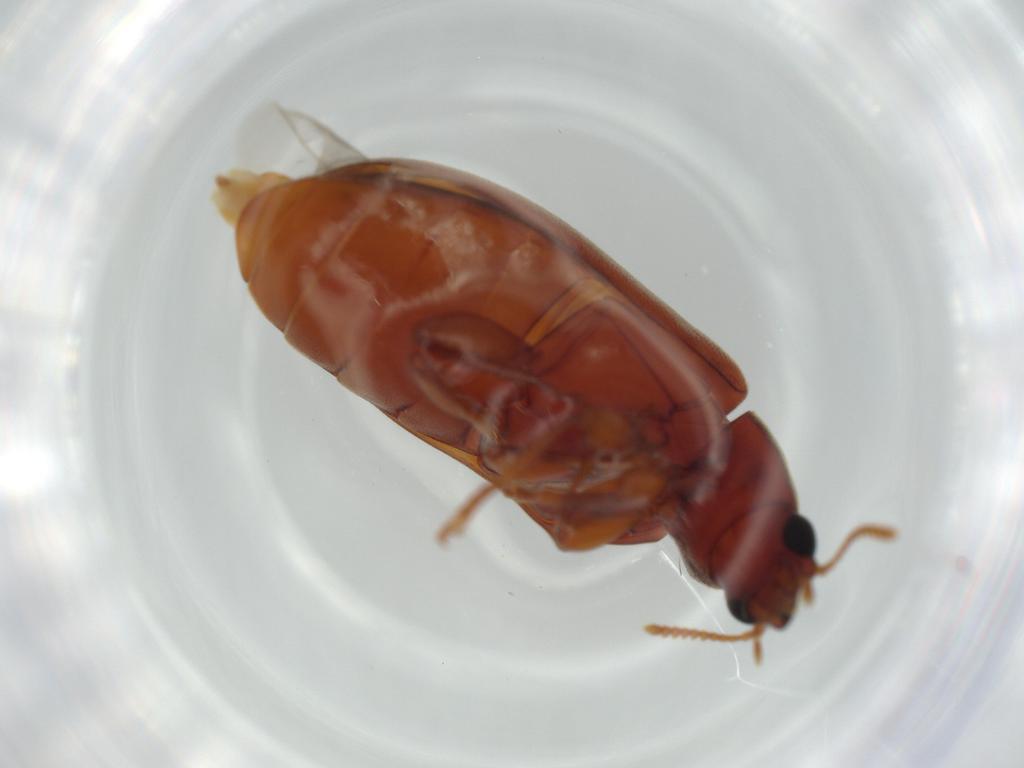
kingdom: Animalia
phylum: Arthropoda
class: Insecta
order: Coleoptera
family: Mycteridae
